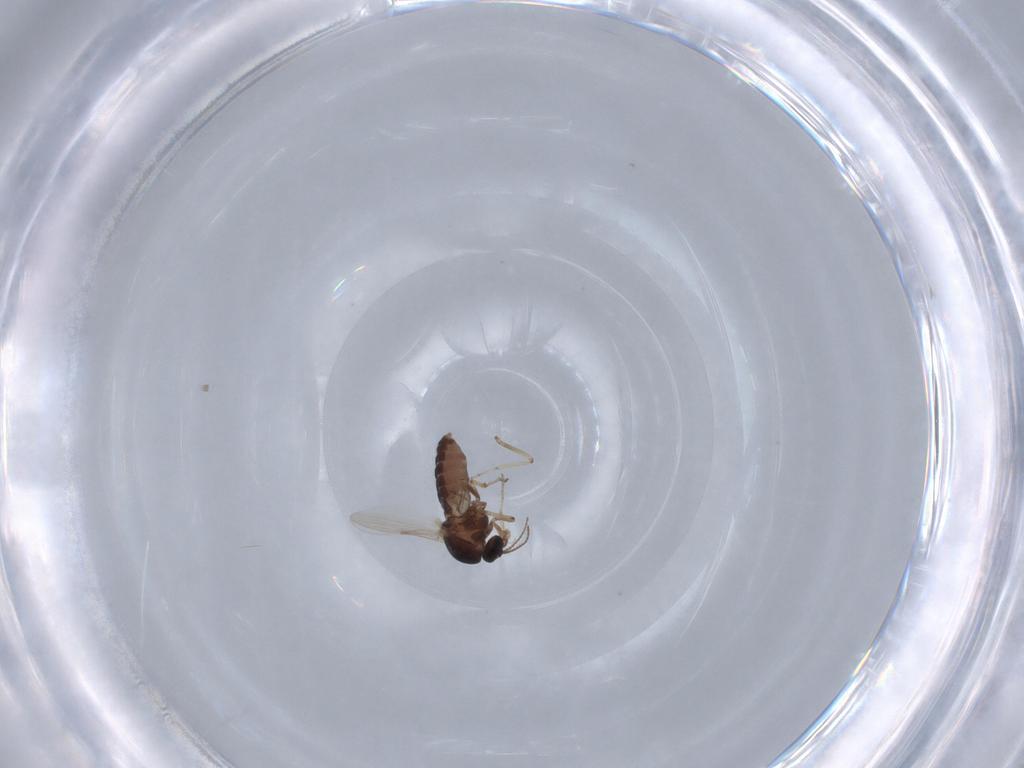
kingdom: Animalia
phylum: Arthropoda
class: Insecta
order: Diptera
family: Ceratopogonidae
